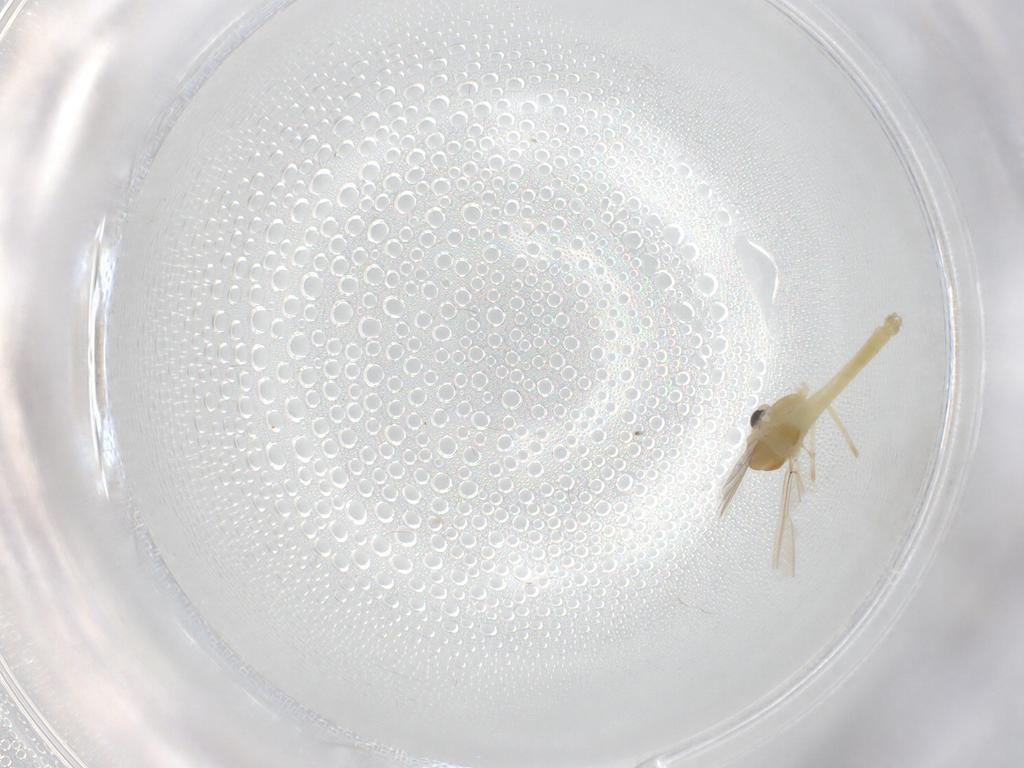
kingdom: Animalia
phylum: Arthropoda
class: Insecta
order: Diptera
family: Chironomidae
